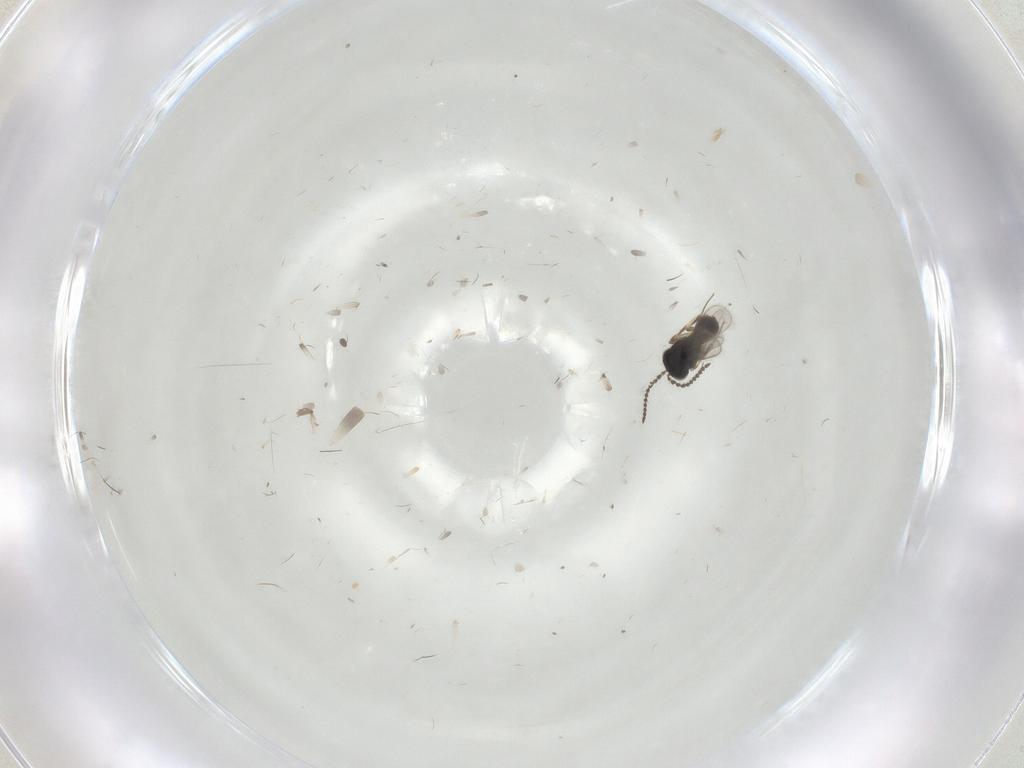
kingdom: Animalia
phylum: Arthropoda
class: Insecta
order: Hymenoptera
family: Scelionidae
